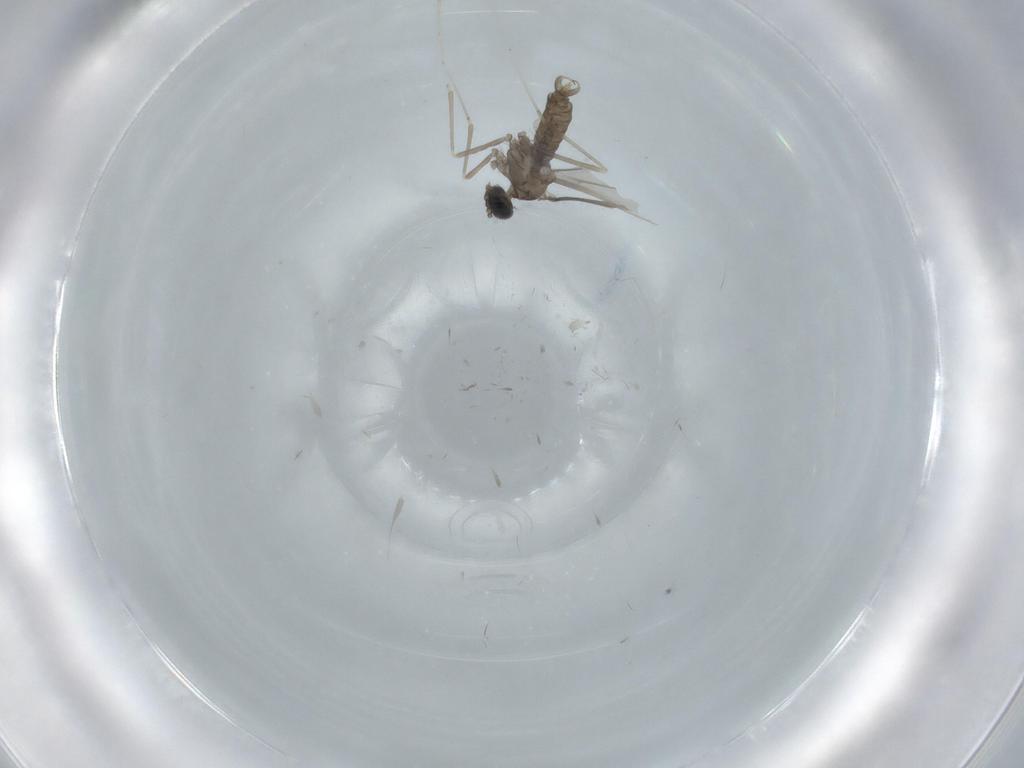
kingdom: Animalia
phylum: Arthropoda
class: Insecta
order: Diptera
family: Cecidomyiidae
